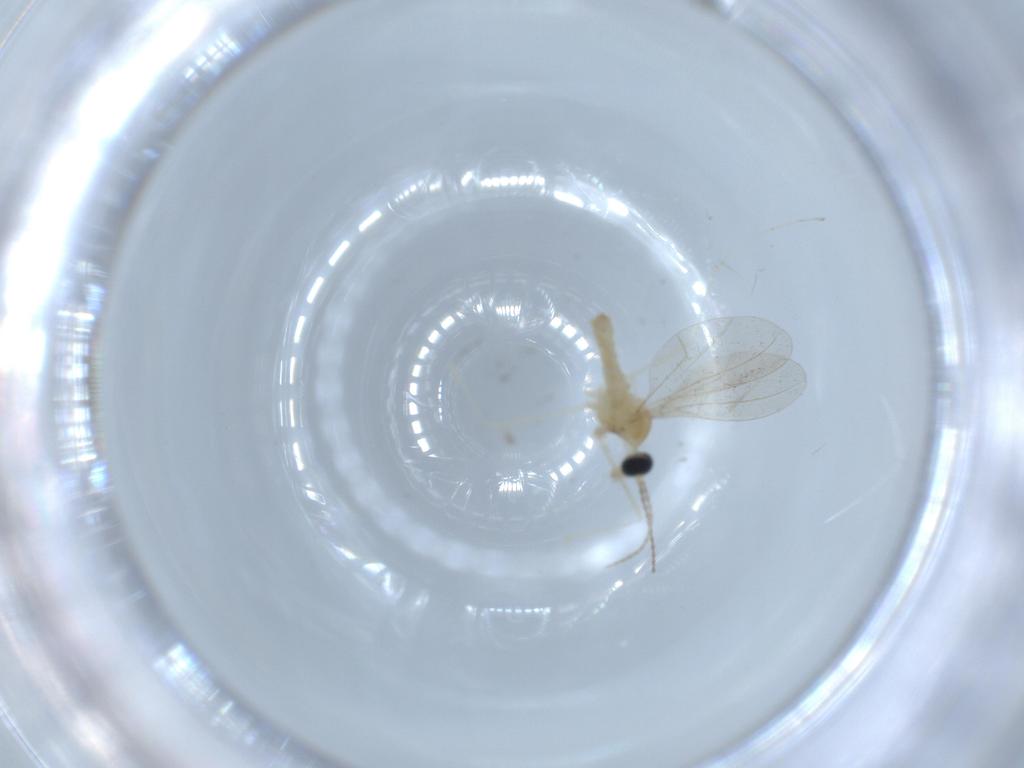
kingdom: Animalia
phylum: Arthropoda
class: Insecta
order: Diptera
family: Cecidomyiidae
